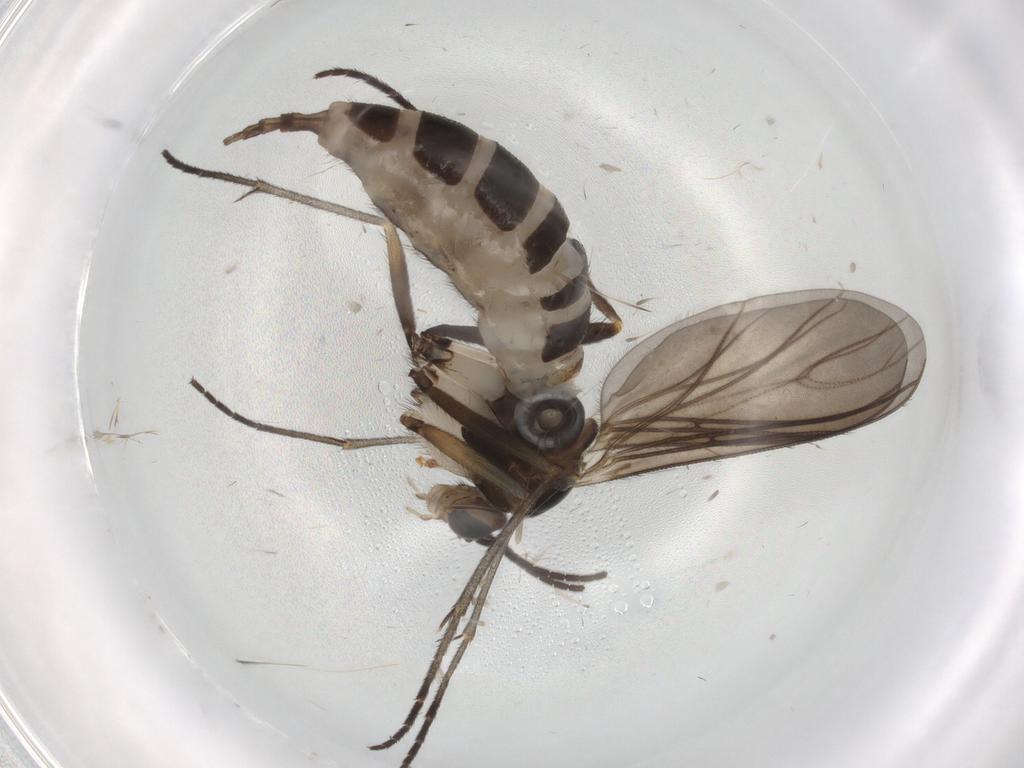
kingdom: Animalia
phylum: Arthropoda
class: Insecta
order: Diptera
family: Sciaridae
